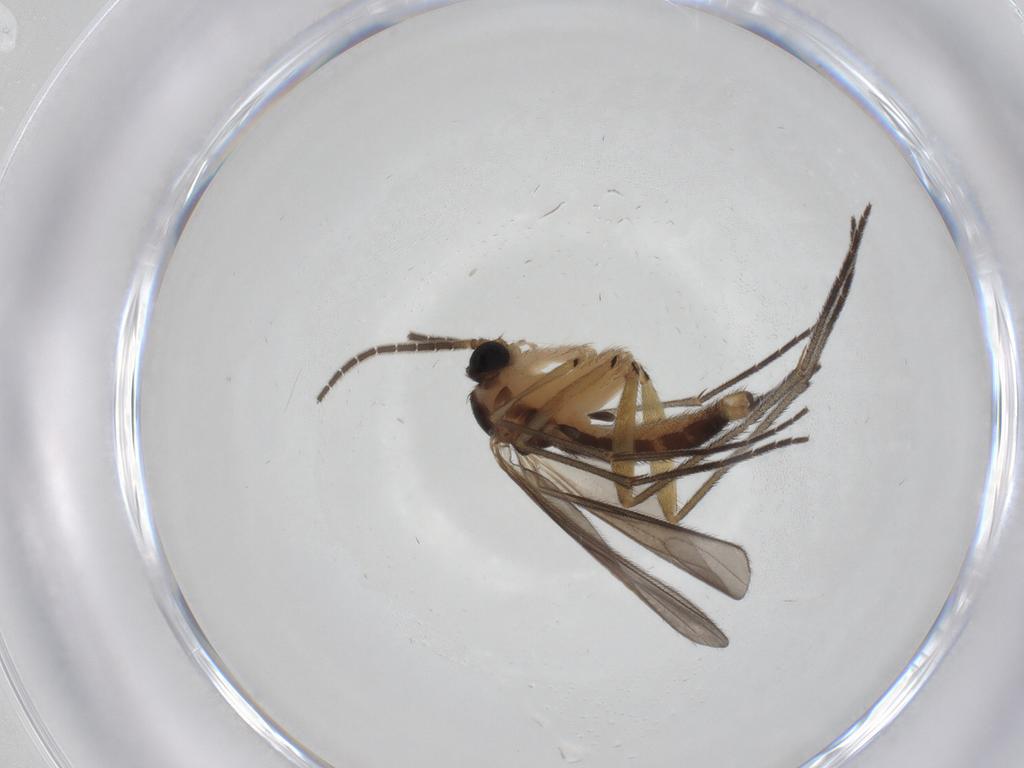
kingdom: Animalia
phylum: Arthropoda
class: Insecta
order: Diptera
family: Sciaridae
